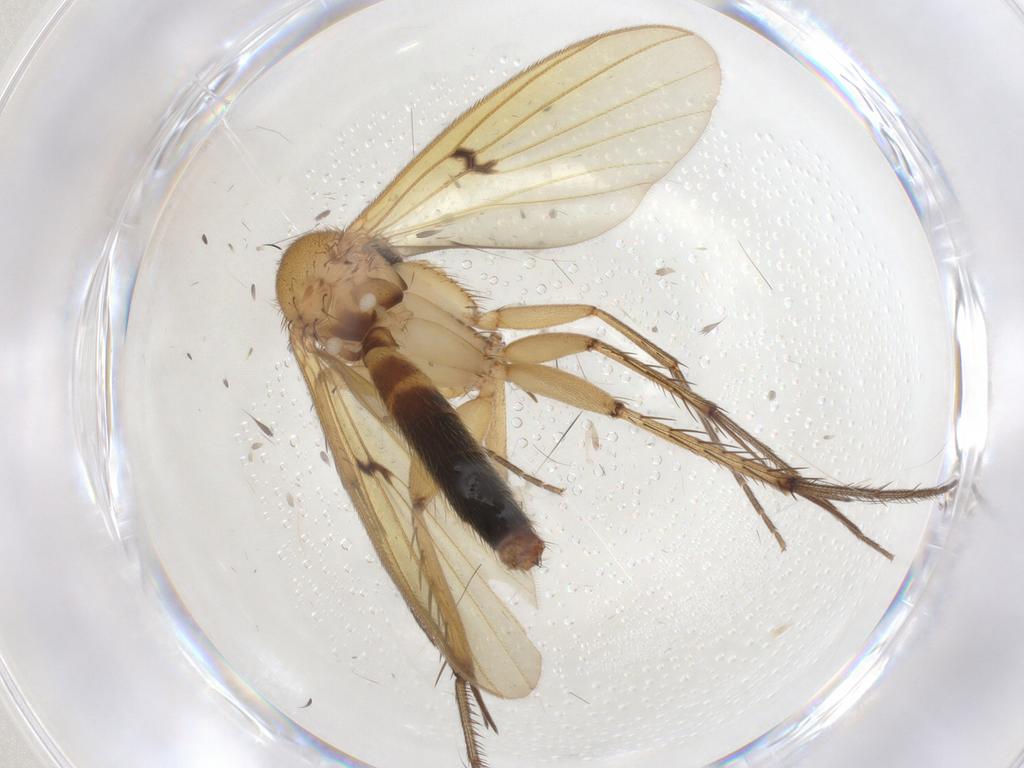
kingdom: Animalia
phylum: Arthropoda
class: Insecta
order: Diptera
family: Mycetophilidae
